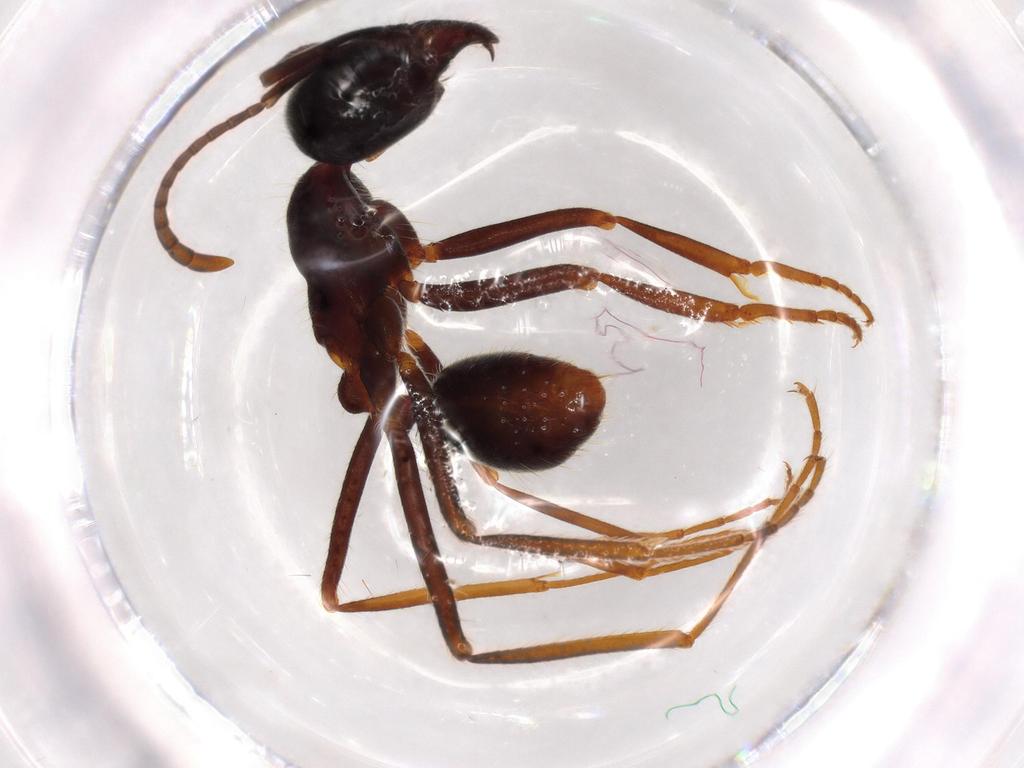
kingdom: Animalia
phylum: Arthropoda
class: Insecta
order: Hymenoptera
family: Formicidae
